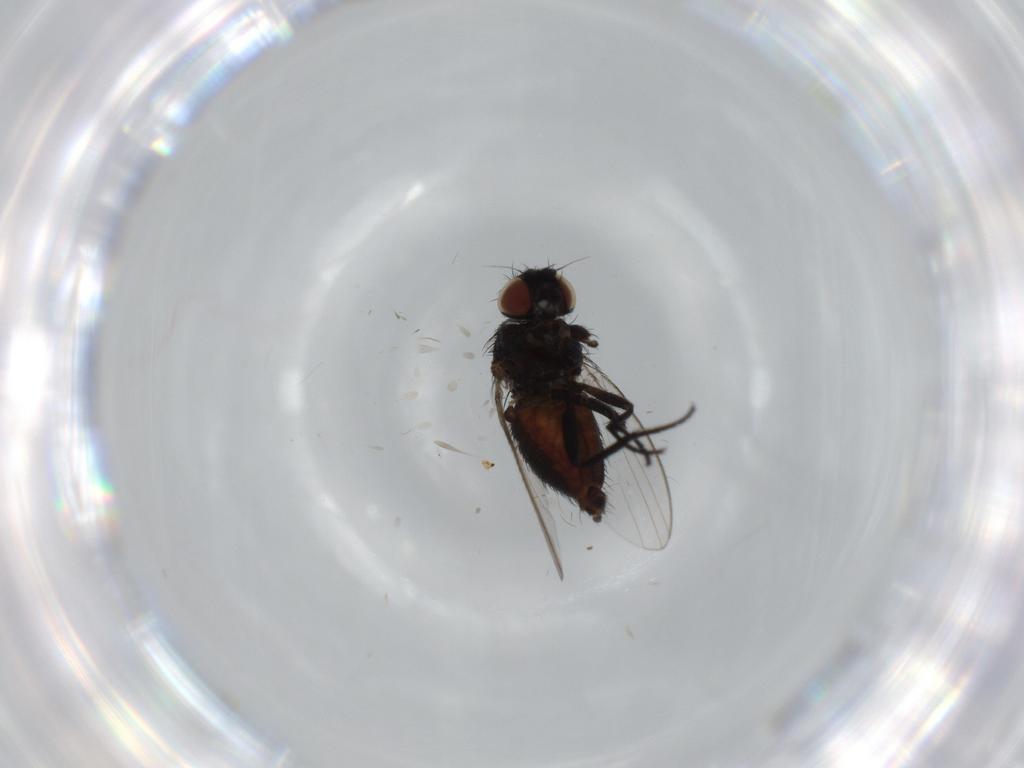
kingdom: Animalia
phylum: Arthropoda
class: Insecta
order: Diptera
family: Milichiidae
